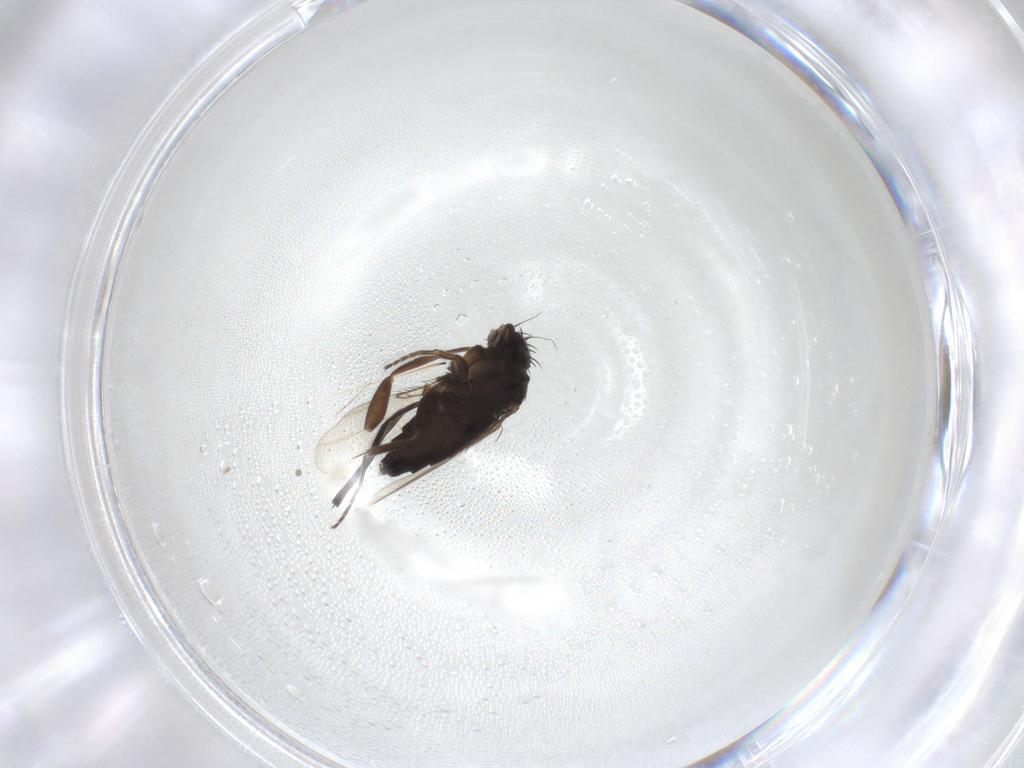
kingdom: Animalia
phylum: Arthropoda
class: Insecta
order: Diptera
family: Phoridae
